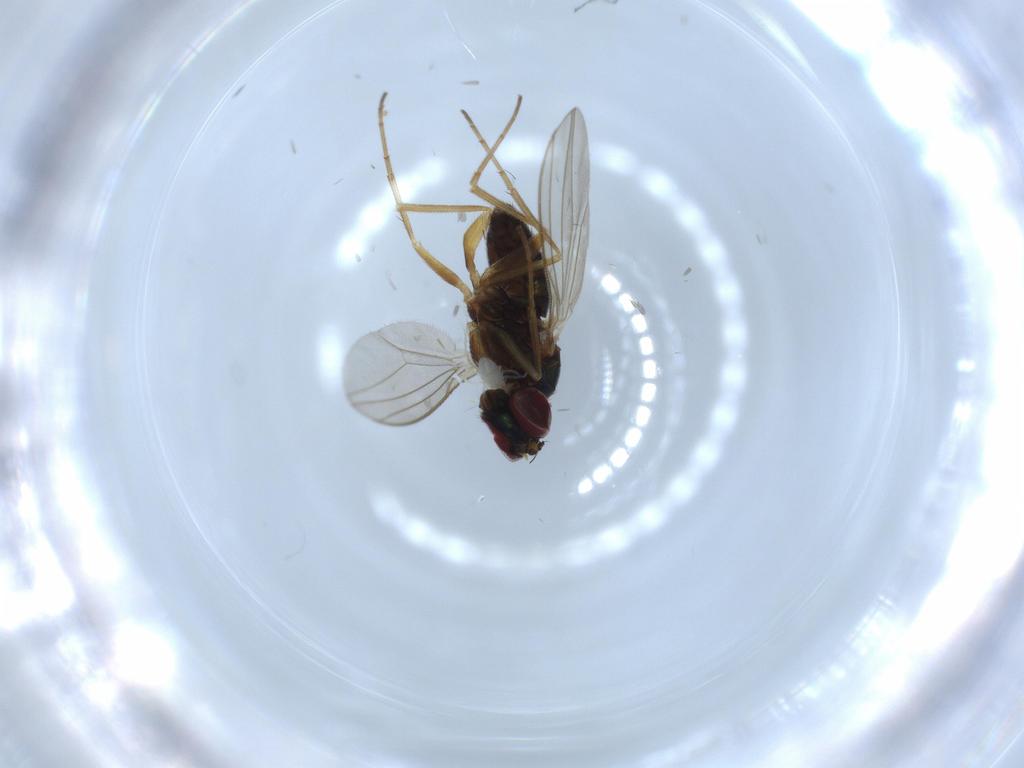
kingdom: Animalia
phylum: Arthropoda
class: Insecta
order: Diptera
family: Dolichopodidae
